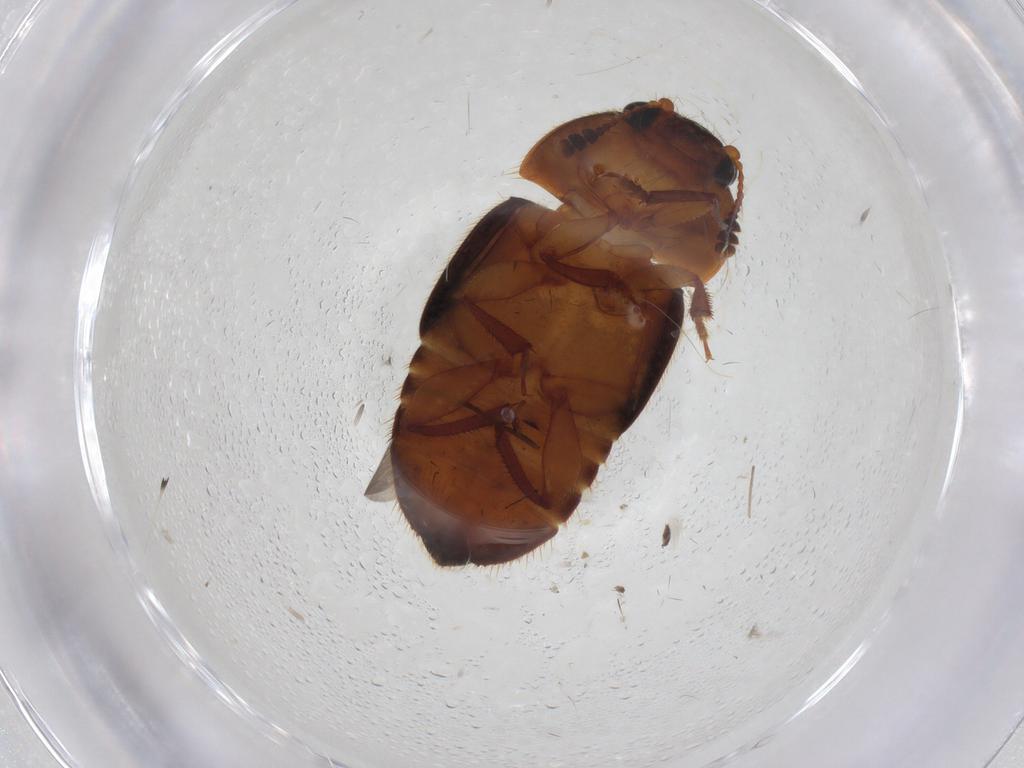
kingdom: Animalia
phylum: Arthropoda
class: Insecta
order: Coleoptera
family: Nitidulidae
